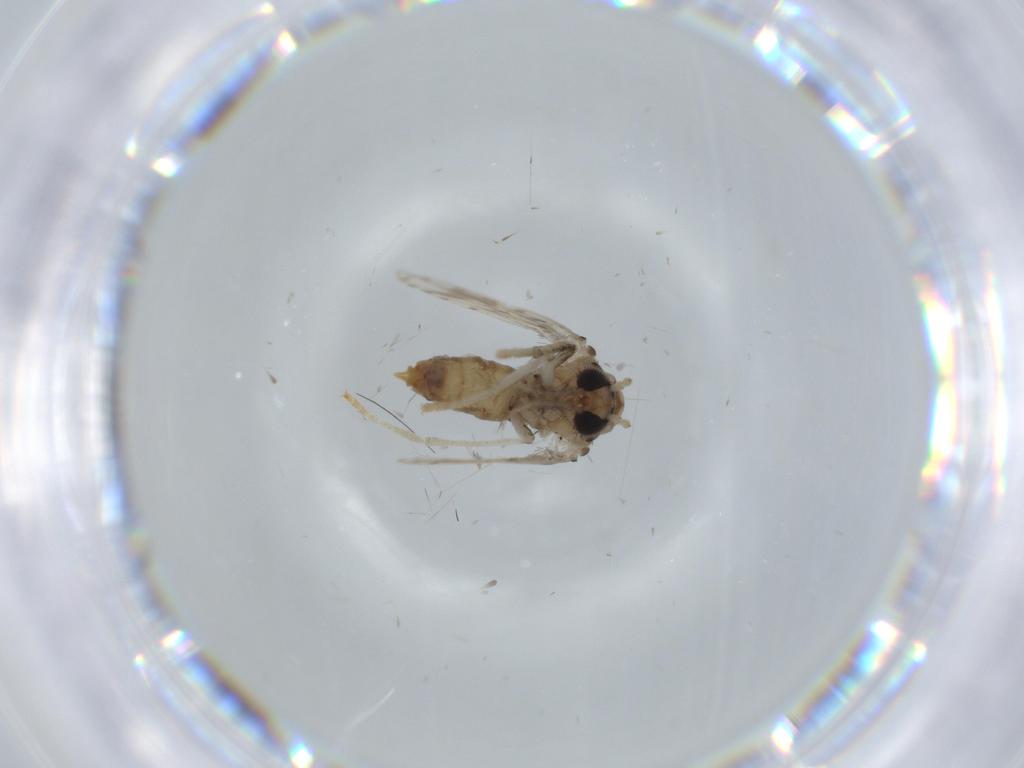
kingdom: Animalia
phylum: Arthropoda
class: Insecta
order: Diptera
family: Psychodidae
